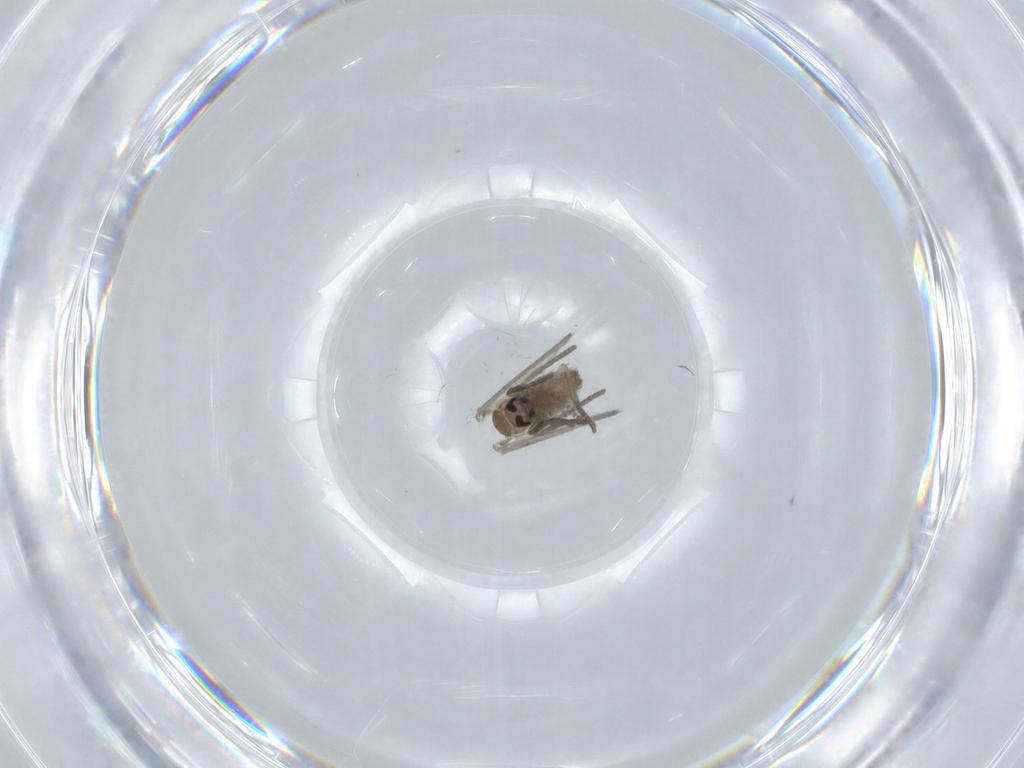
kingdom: Animalia
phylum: Arthropoda
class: Insecta
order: Diptera
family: Psychodidae
